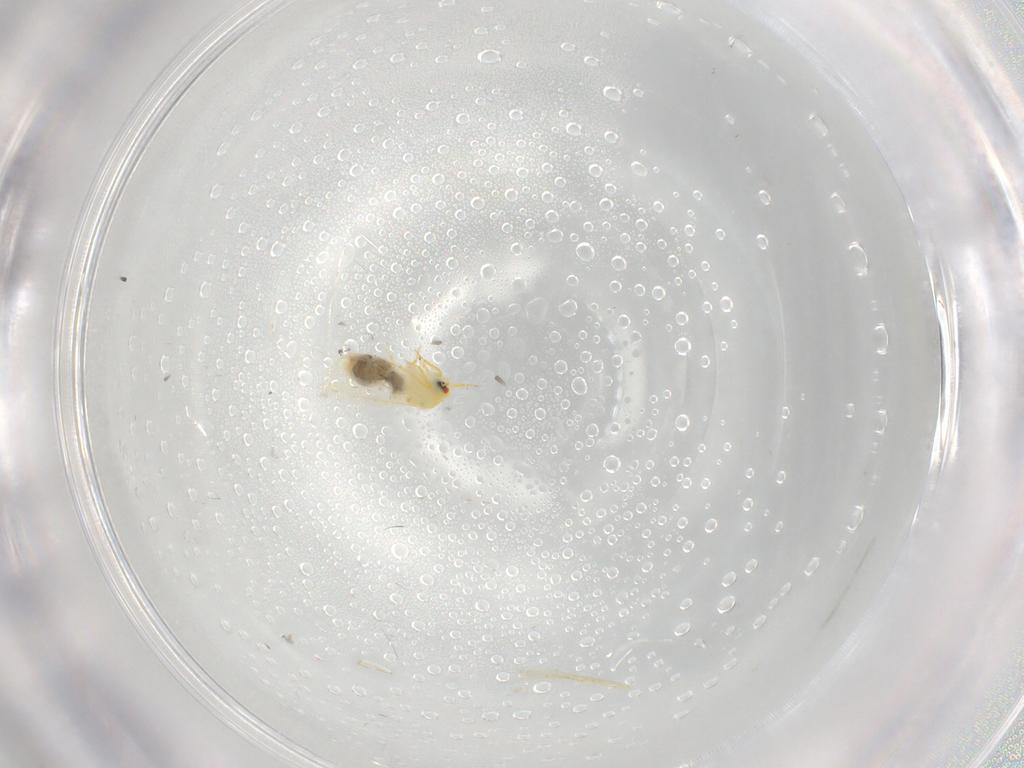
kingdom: Animalia
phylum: Arthropoda
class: Insecta
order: Hemiptera
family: Aleyrodidae
